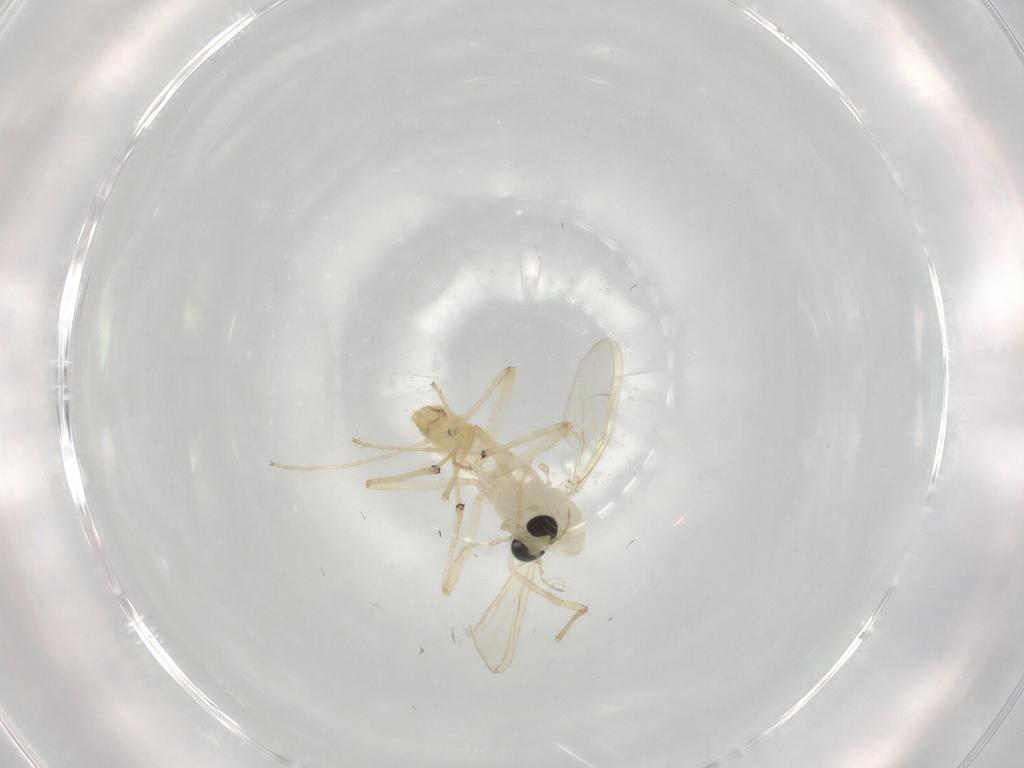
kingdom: Animalia
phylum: Arthropoda
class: Insecta
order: Diptera
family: Chironomidae
